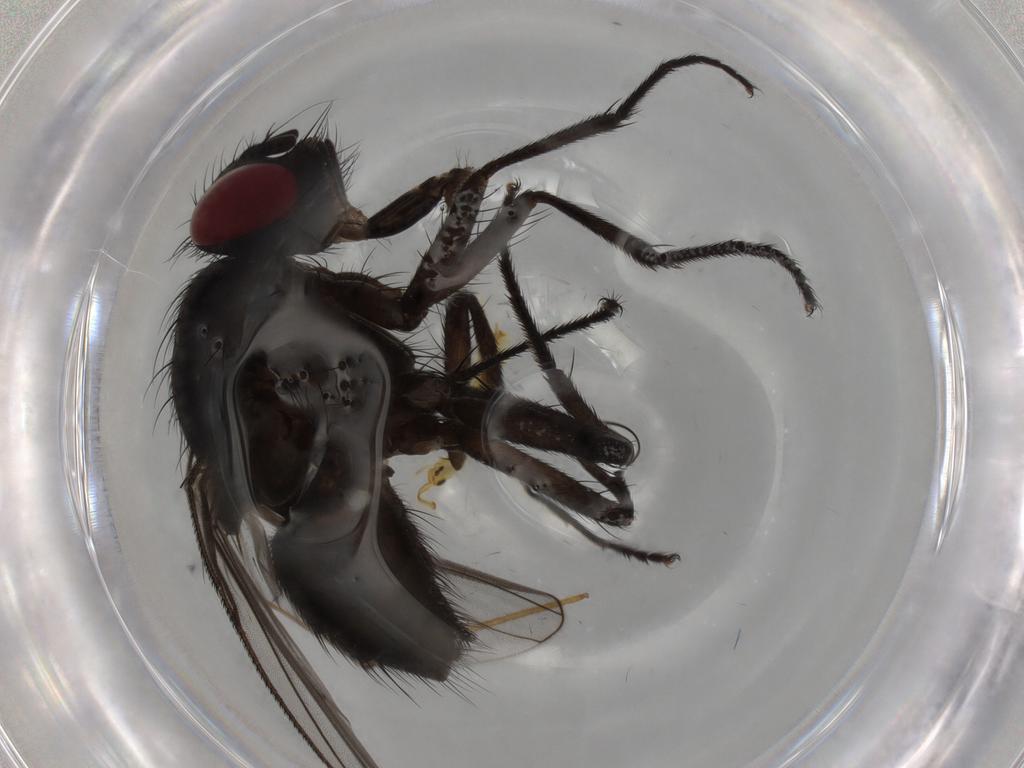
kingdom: Animalia
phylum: Arthropoda
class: Insecta
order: Diptera
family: Muscidae
